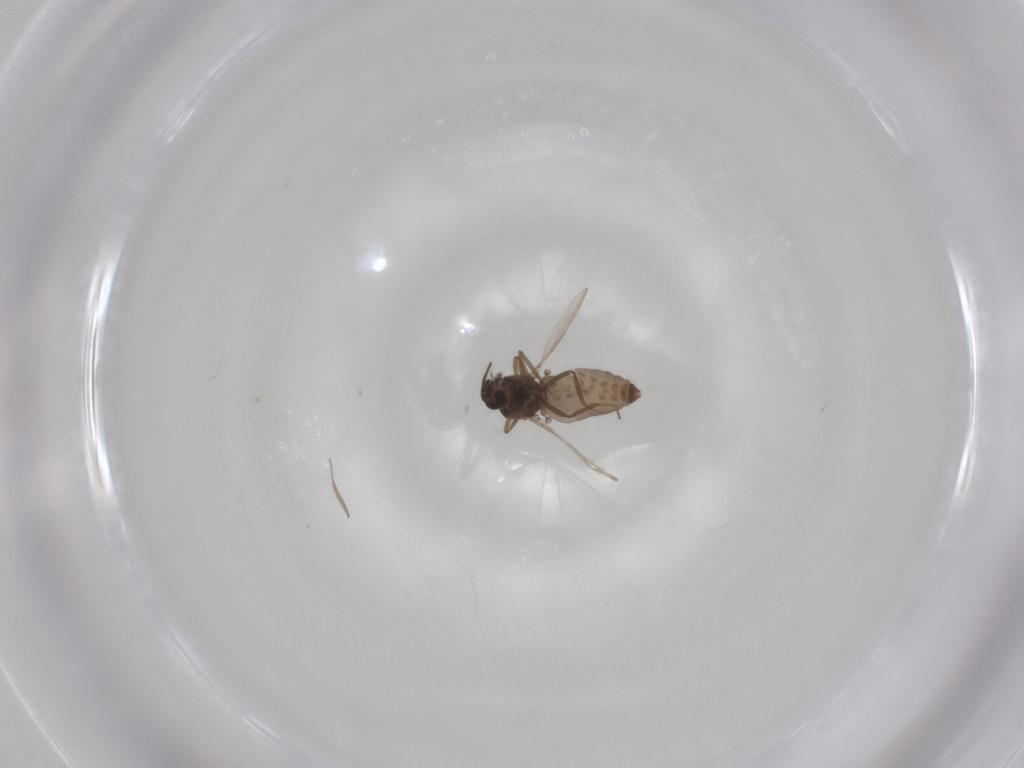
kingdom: Animalia
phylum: Arthropoda
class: Insecta
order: Diptera
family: Ceratopogonidae
